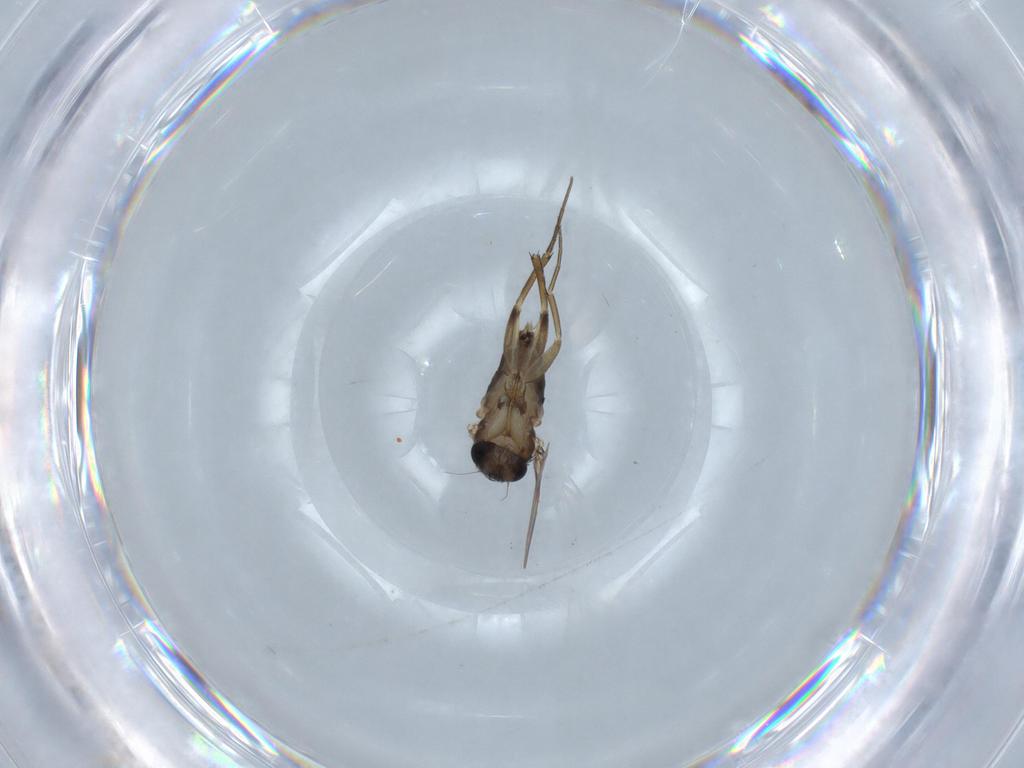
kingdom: Animalia
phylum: Arthropoda
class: Insecta
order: Diptera
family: Phoridae
